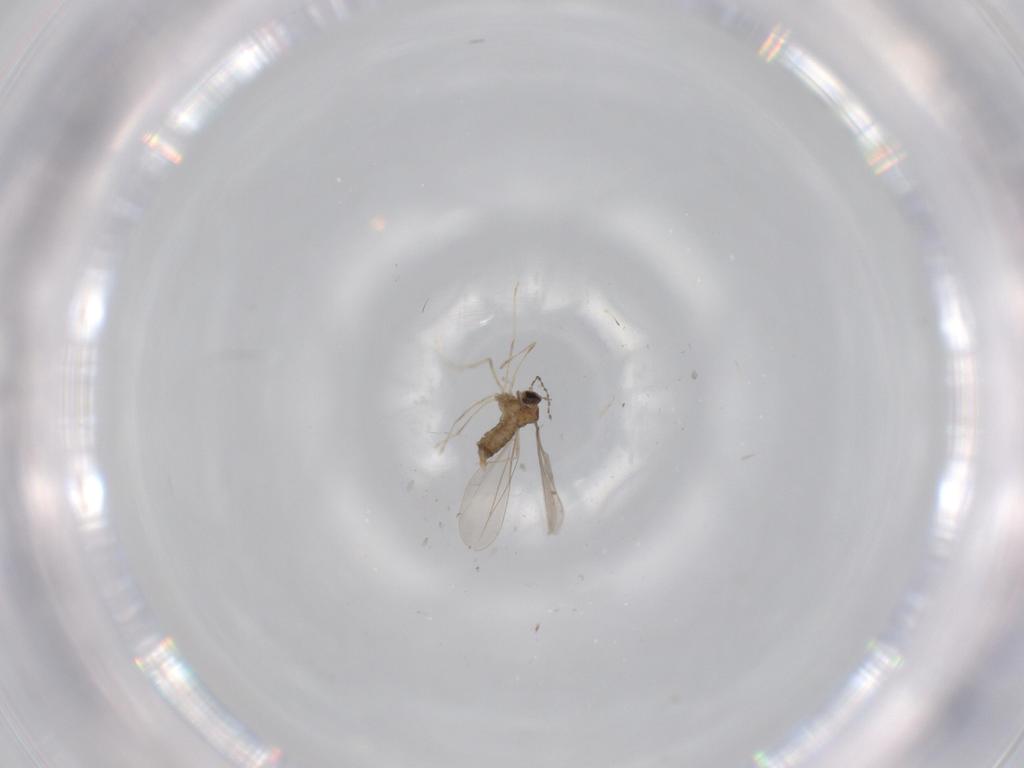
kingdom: Animalia
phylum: Arthropoda
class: Insecta
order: Diptera
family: Cecidomyiidae
